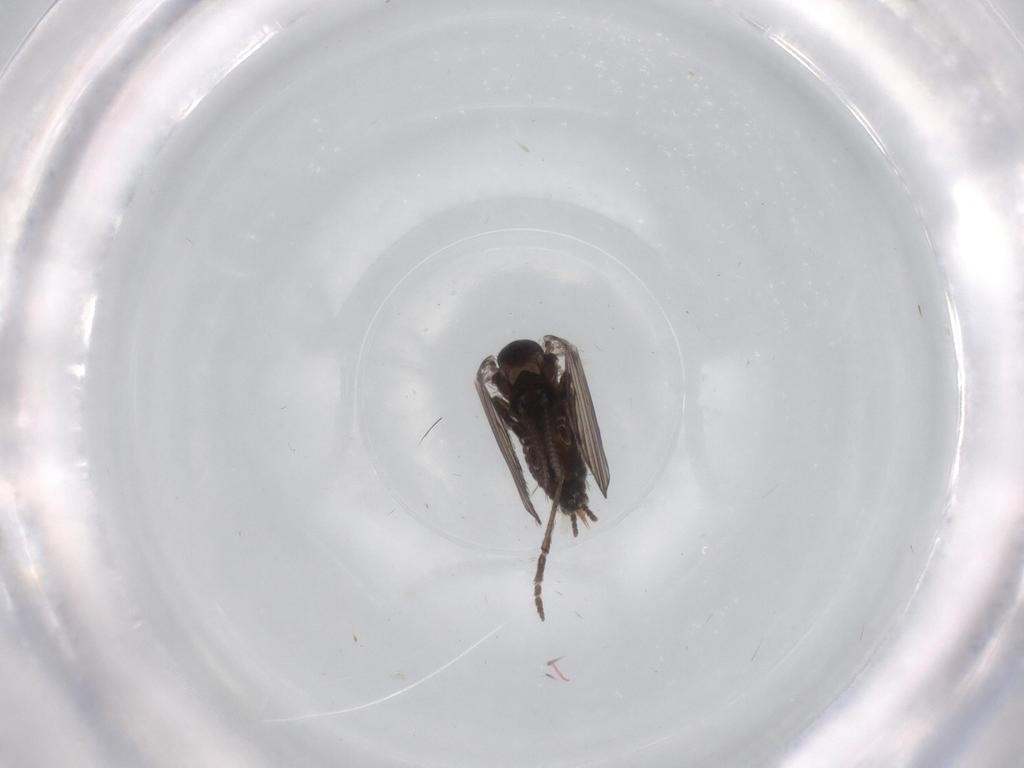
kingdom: Animalia
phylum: Arthropoda
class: Insecta
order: Diptera
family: Psychodidae
